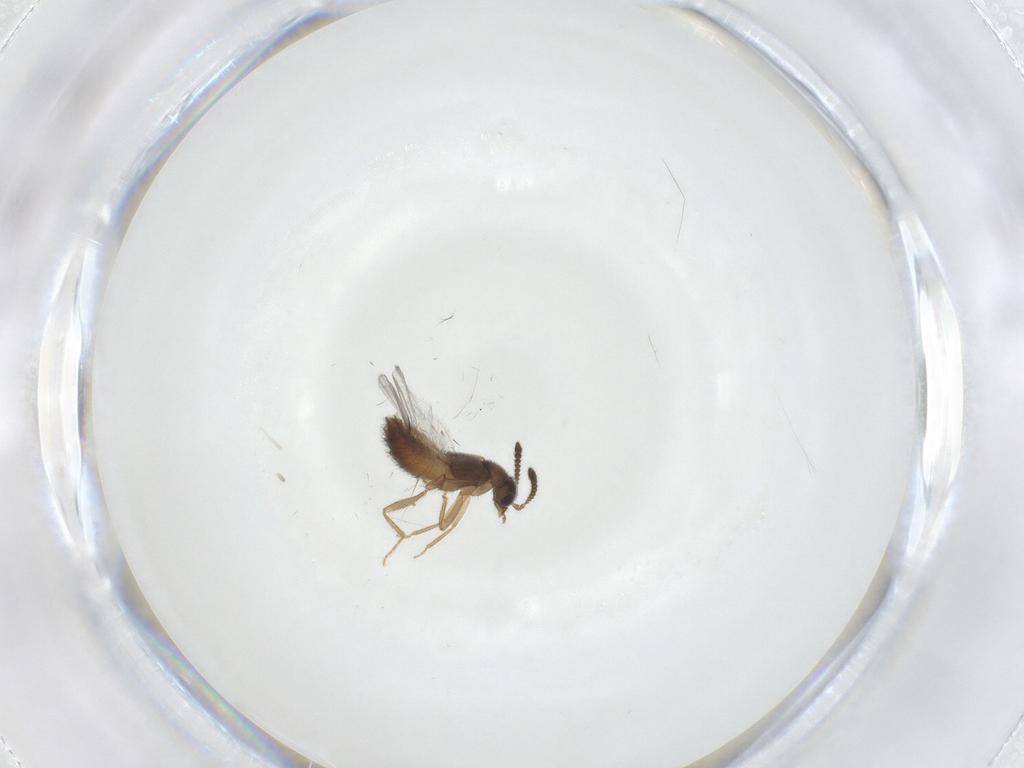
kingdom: Animalia
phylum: Arthropoda
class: Insecta
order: Coleoptera
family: Staphylinidae
